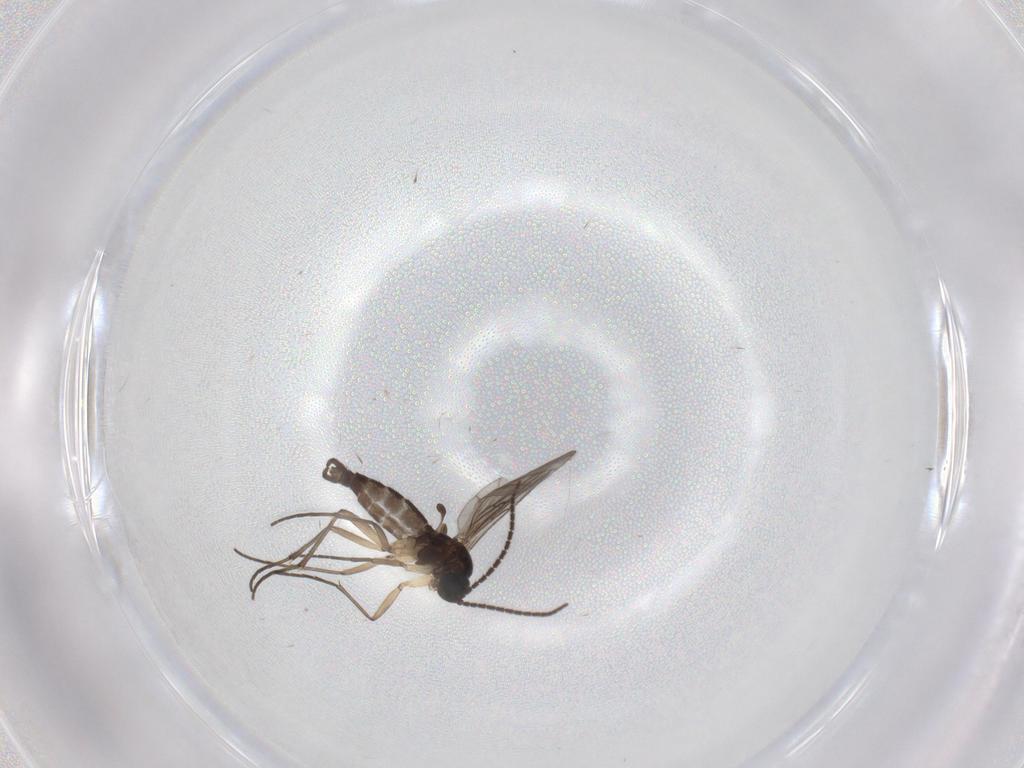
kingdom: Animalia
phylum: Arthropoda
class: Insecta
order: Diptera
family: Sciaridae
